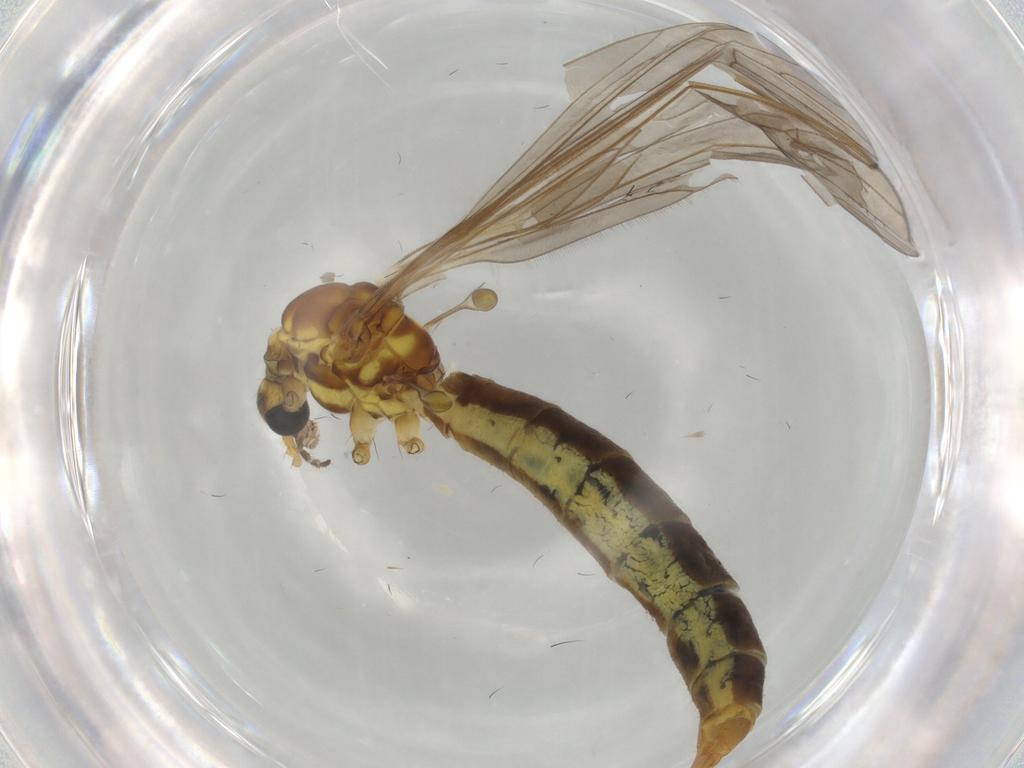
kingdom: Animalia
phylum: Arthropoda
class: Insecta
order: Diptera
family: Limoniidae
